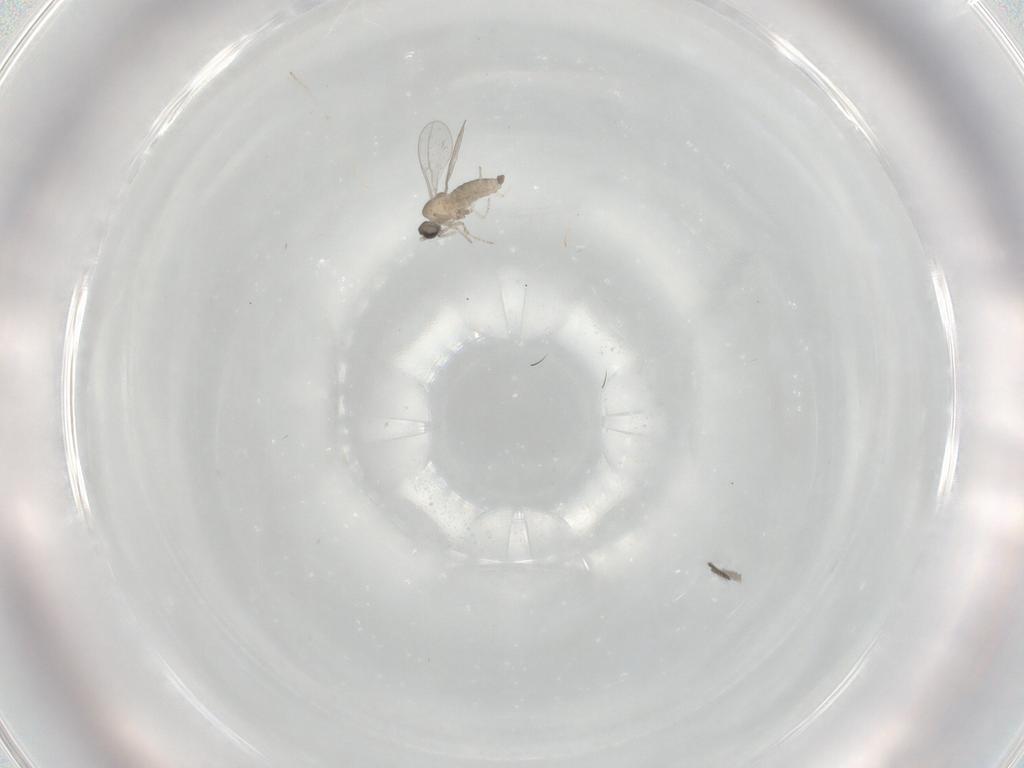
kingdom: Animalia
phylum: Arthropoda
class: Insecta
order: Diptera
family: Cecidomyiidae
